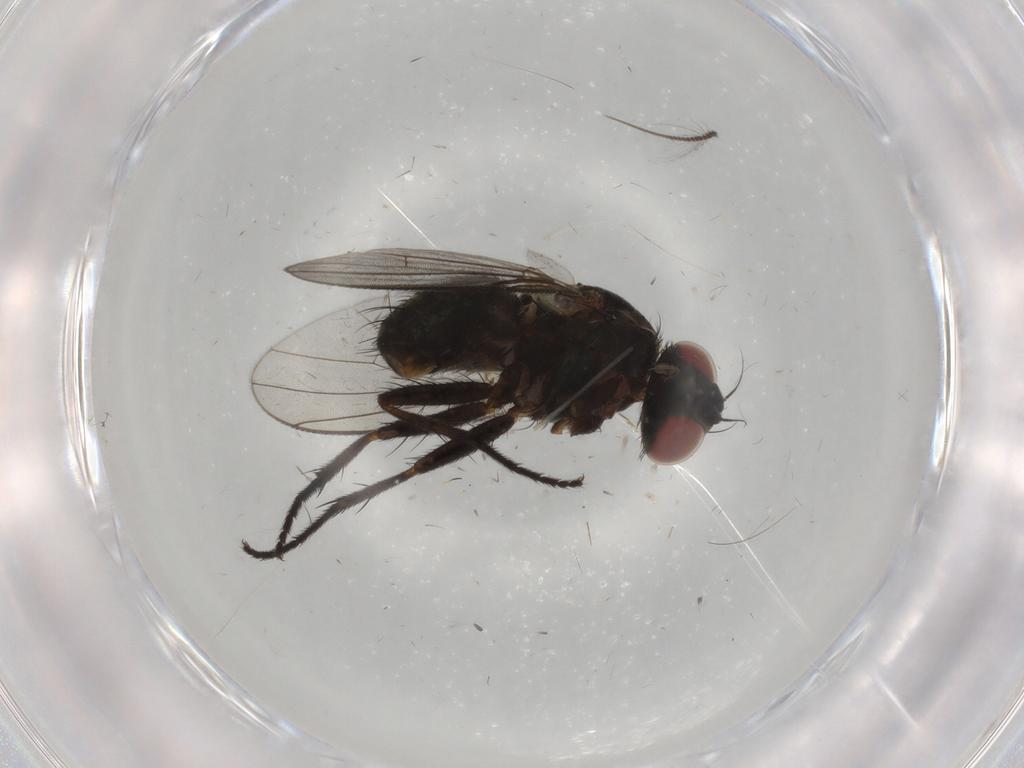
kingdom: Animalia
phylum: Arthropoda
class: Insecta
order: Diptera
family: Muscidae
